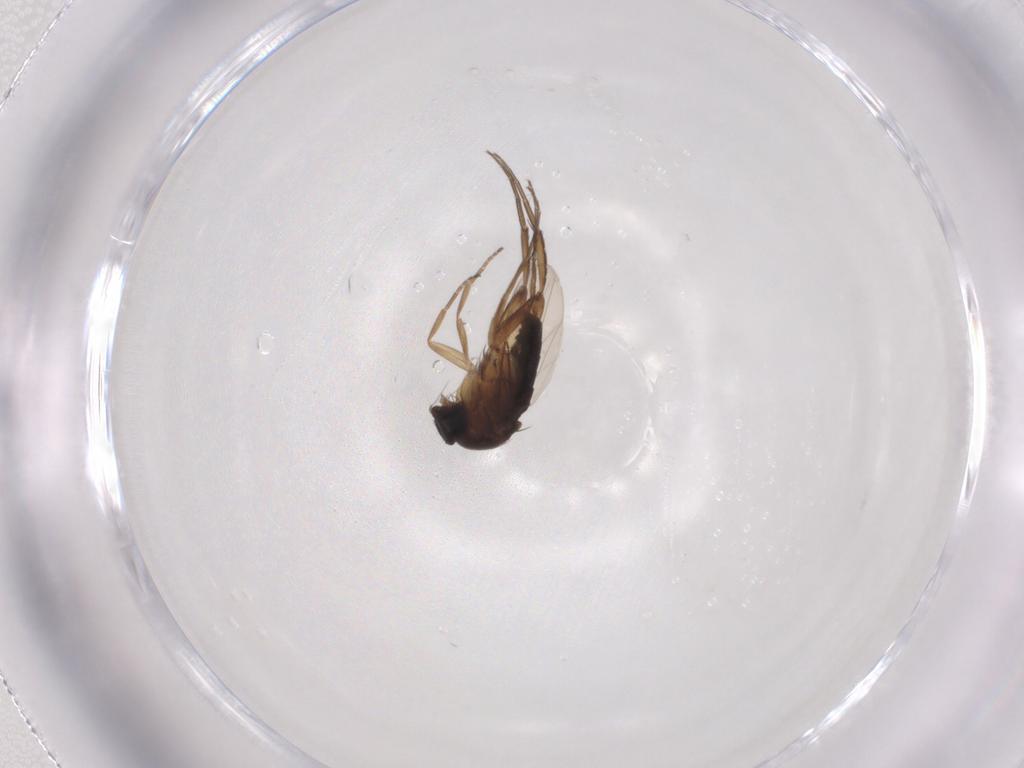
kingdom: Animalia
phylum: Arthropoda
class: Insecta
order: Diptera
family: Phoridae
